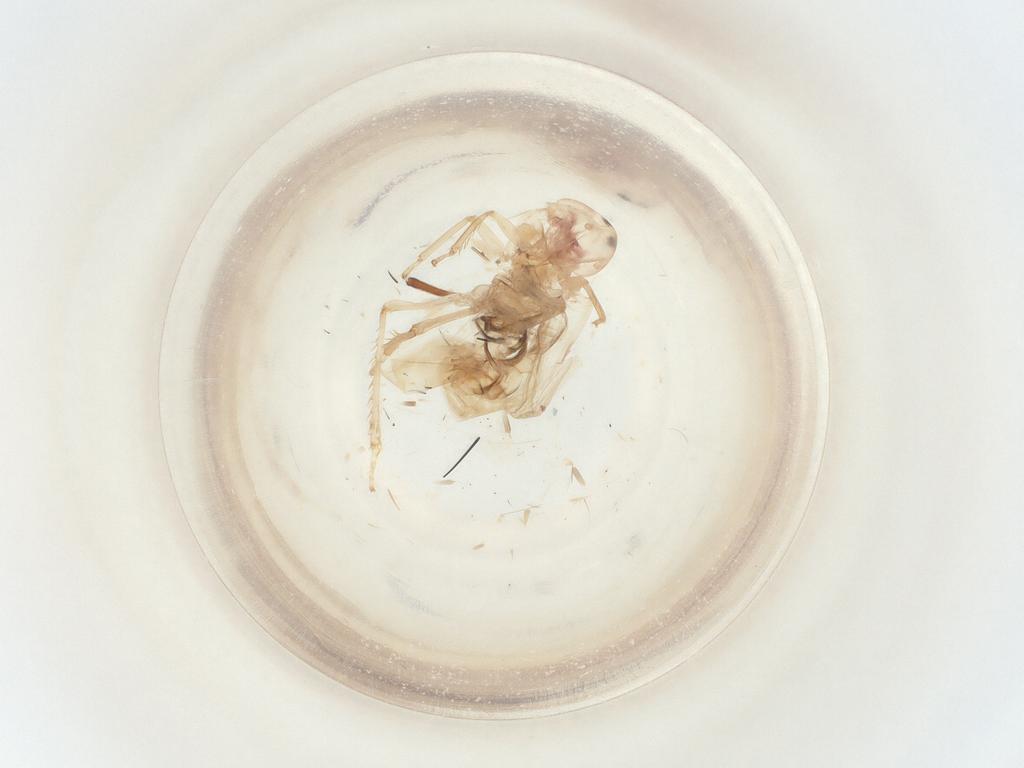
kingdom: Animalia
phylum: Arthropoda
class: Insecta
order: Hemiptera
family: Cicadellidae
